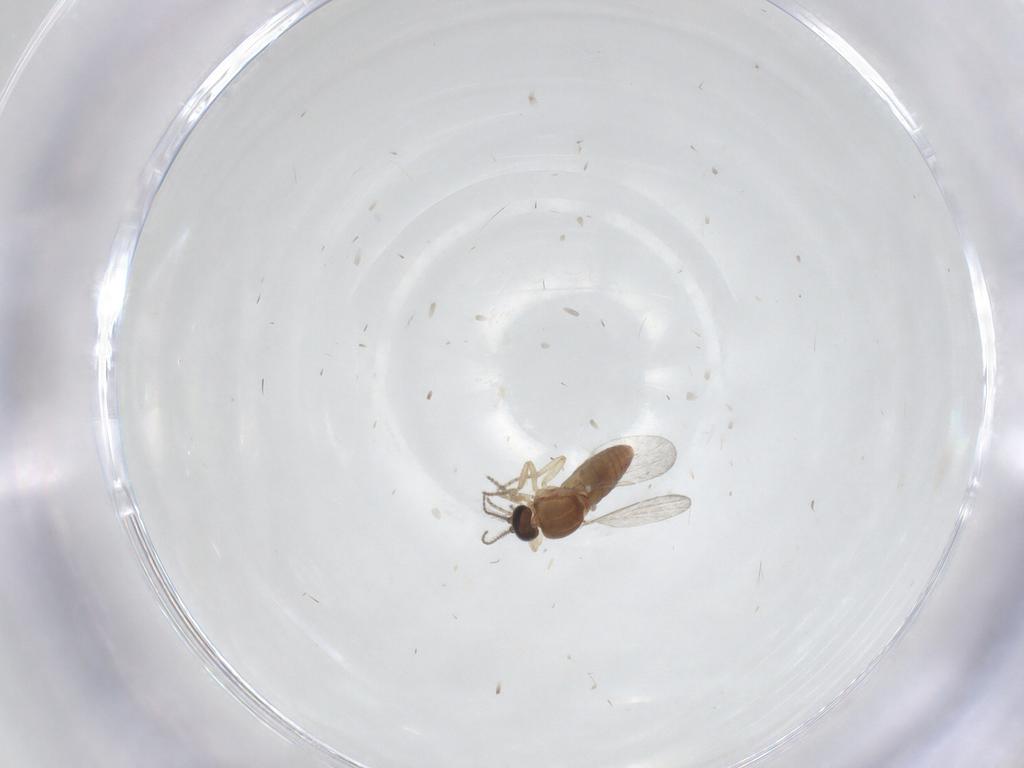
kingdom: Animalia
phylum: Arthropoda
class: Insecta
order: Diptera
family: Ceratopogonidae
